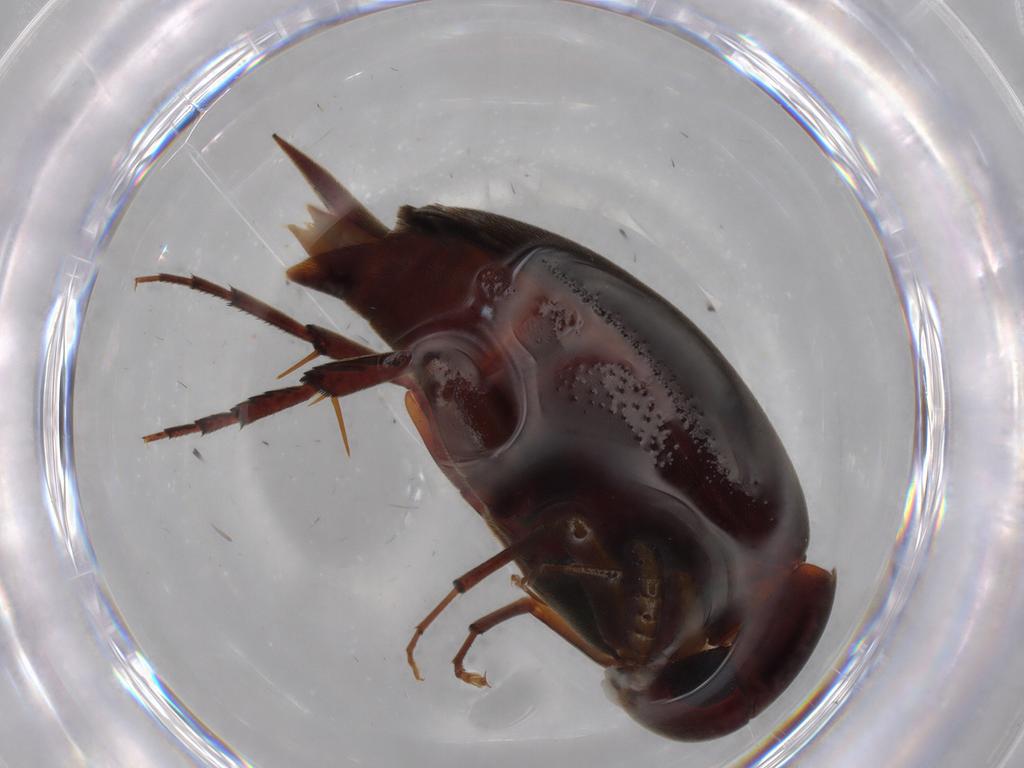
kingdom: Animalia
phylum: Arthropoda
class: Insecta
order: Coleoptera
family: Mordellidae
